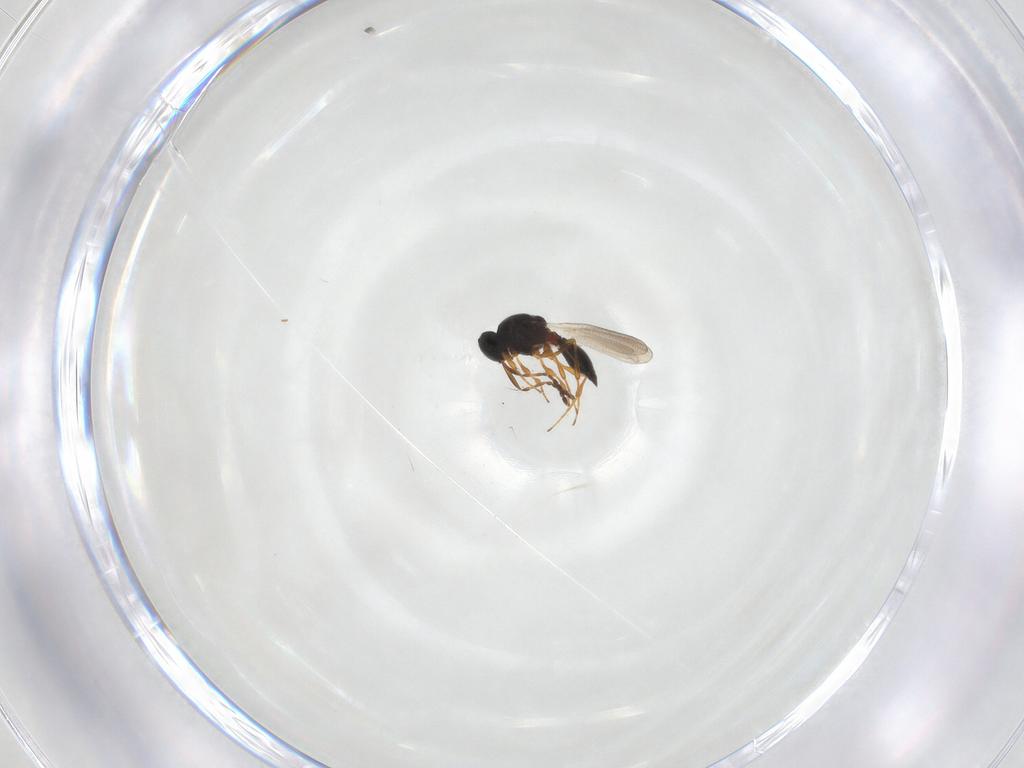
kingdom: Animalia
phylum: Arthropoda
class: Insecta
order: Hymenoptera
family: Platygastridae
